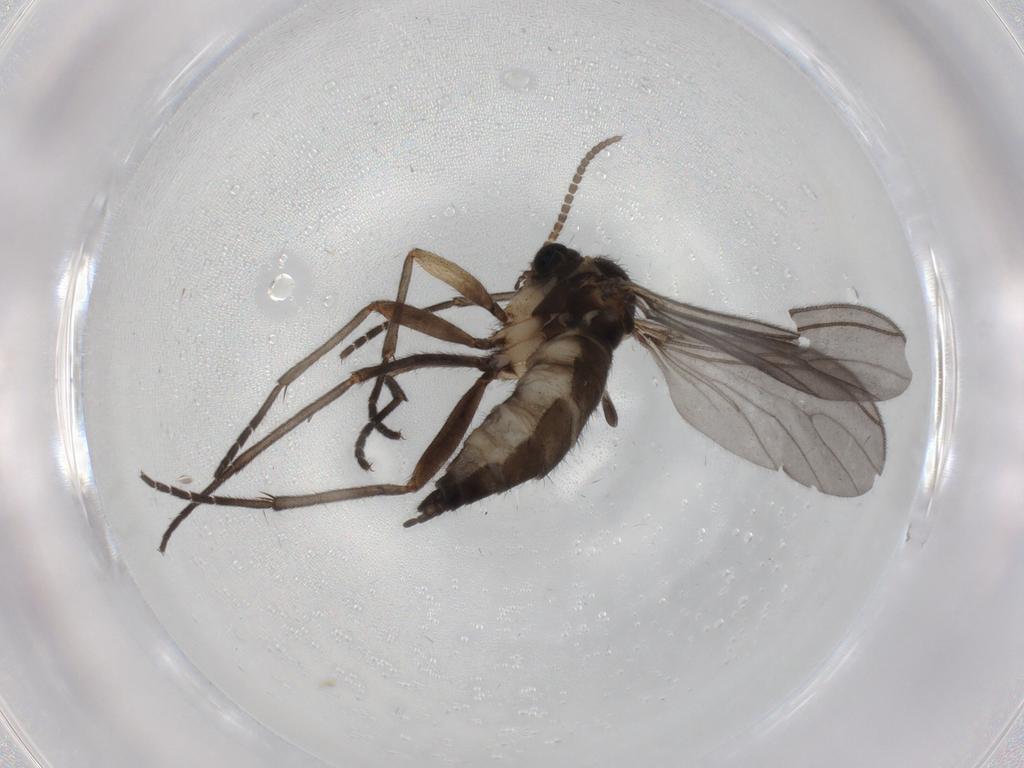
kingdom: Animalia
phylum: Arthropoda
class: Insecta
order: Diptera
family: Sciaridae
